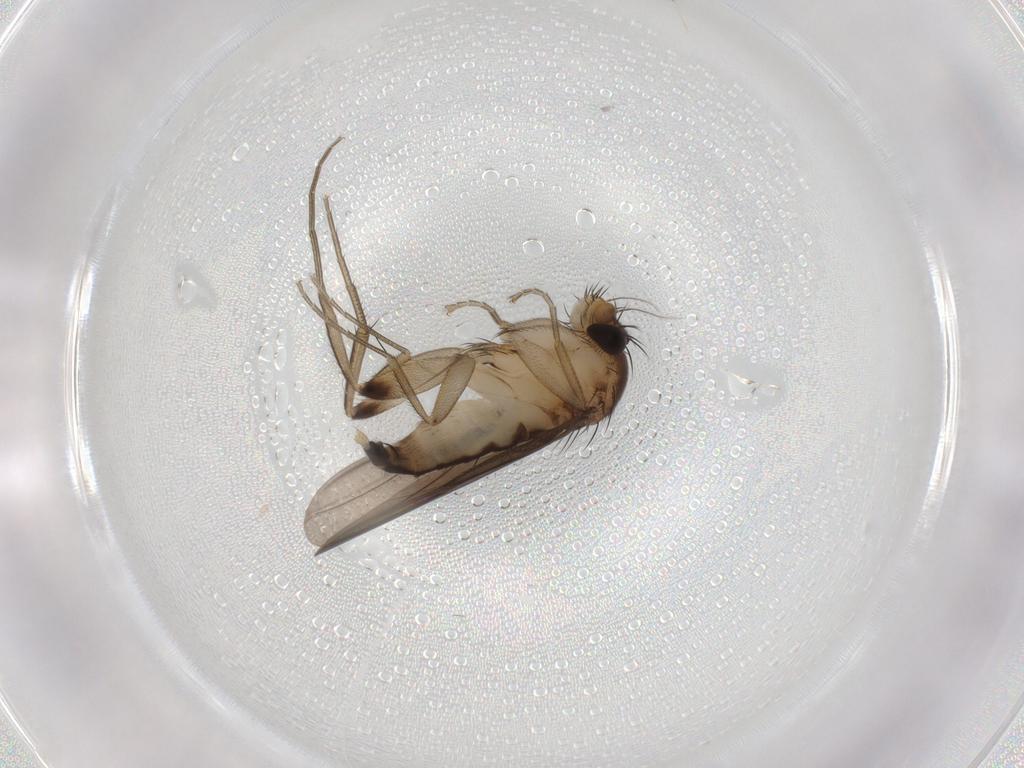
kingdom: Animalia
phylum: Arthropoda
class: Insecta
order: Diptera
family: Phoridae
